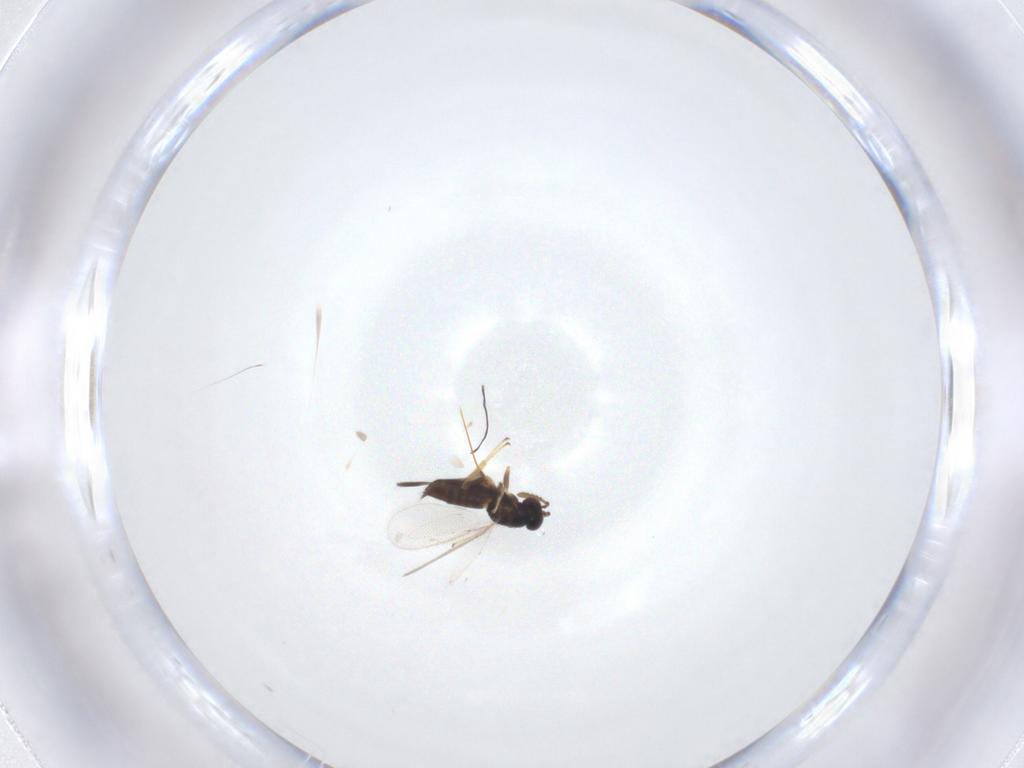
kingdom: Animalia
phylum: Arthropoda
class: Insecta
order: Hymenoptera
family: Pirenidae
